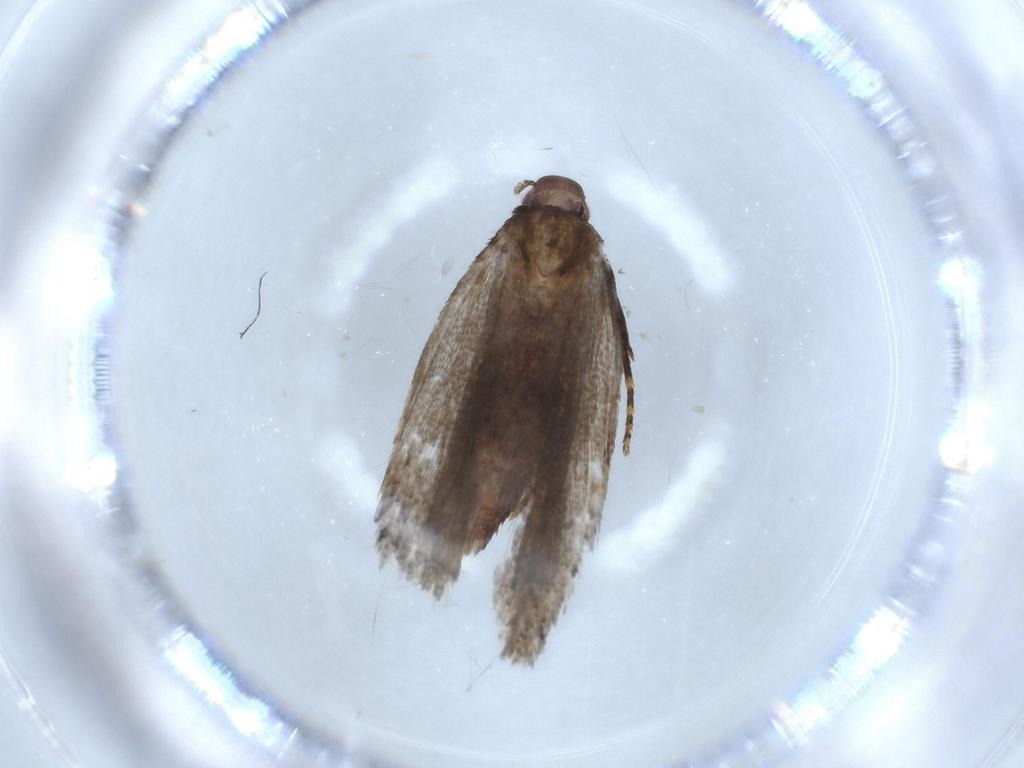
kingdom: Animalia
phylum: Arthropoda
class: Insecta
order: Lepidoptera
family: Gelechiidae
